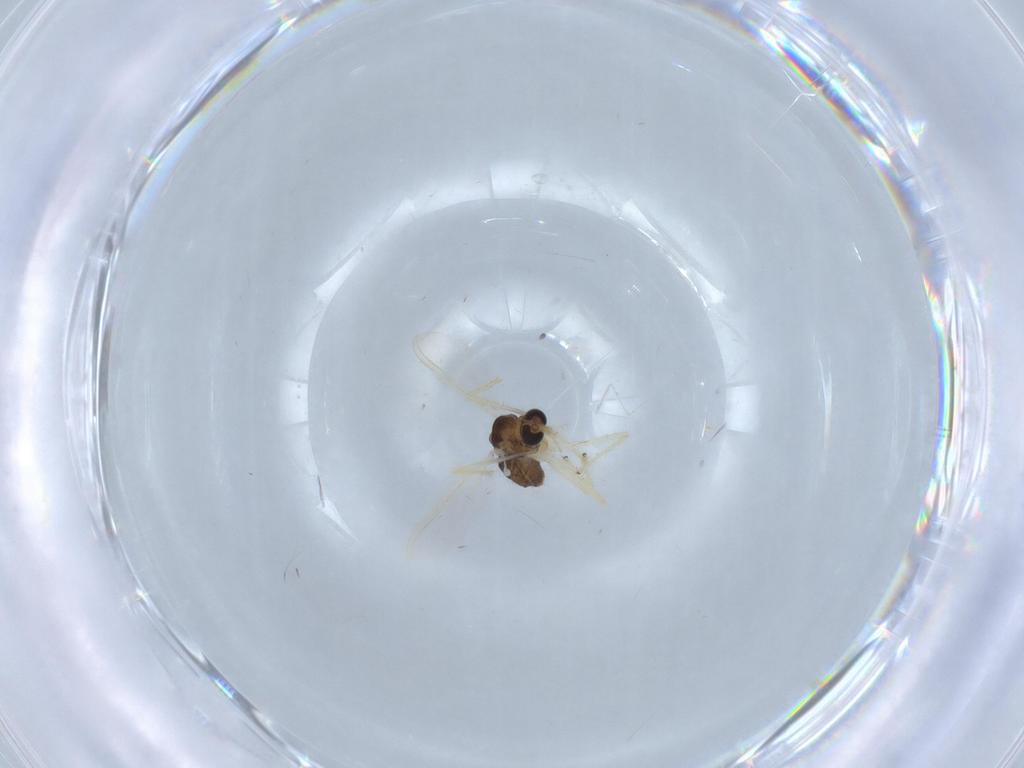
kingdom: Animalia
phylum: Arthropoda
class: Insecta
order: Diptera
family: Chironomidae
